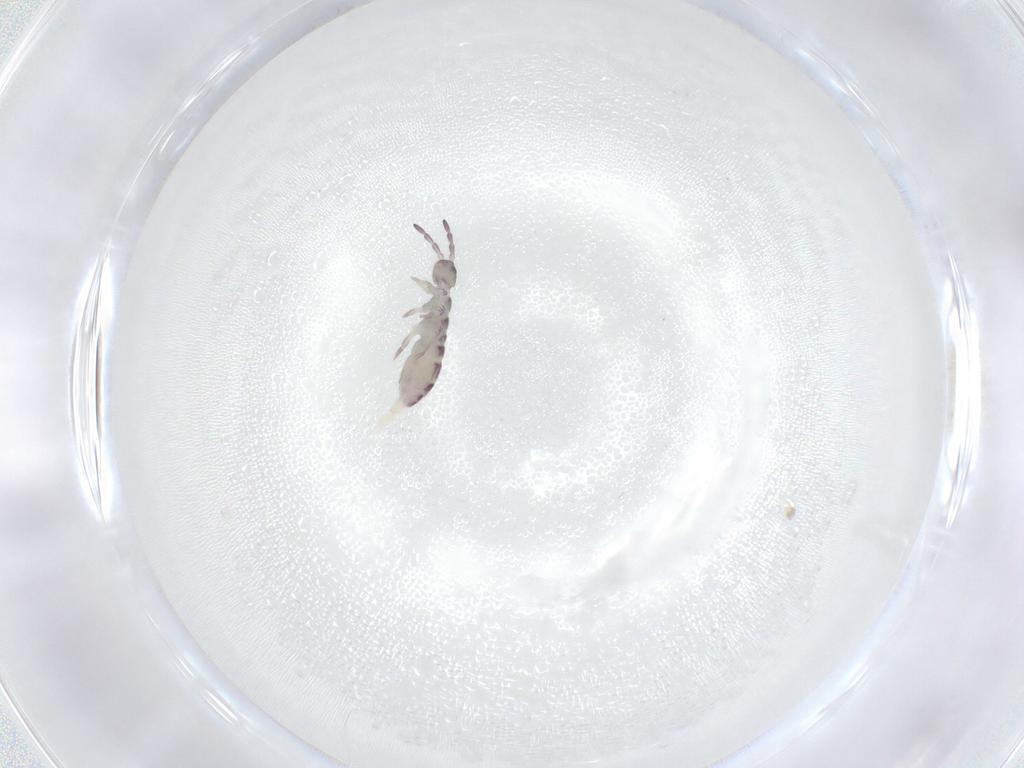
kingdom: Animalia
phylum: Arthropoda
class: Collembola
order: Entomobryomorpha
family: Isotomidae
